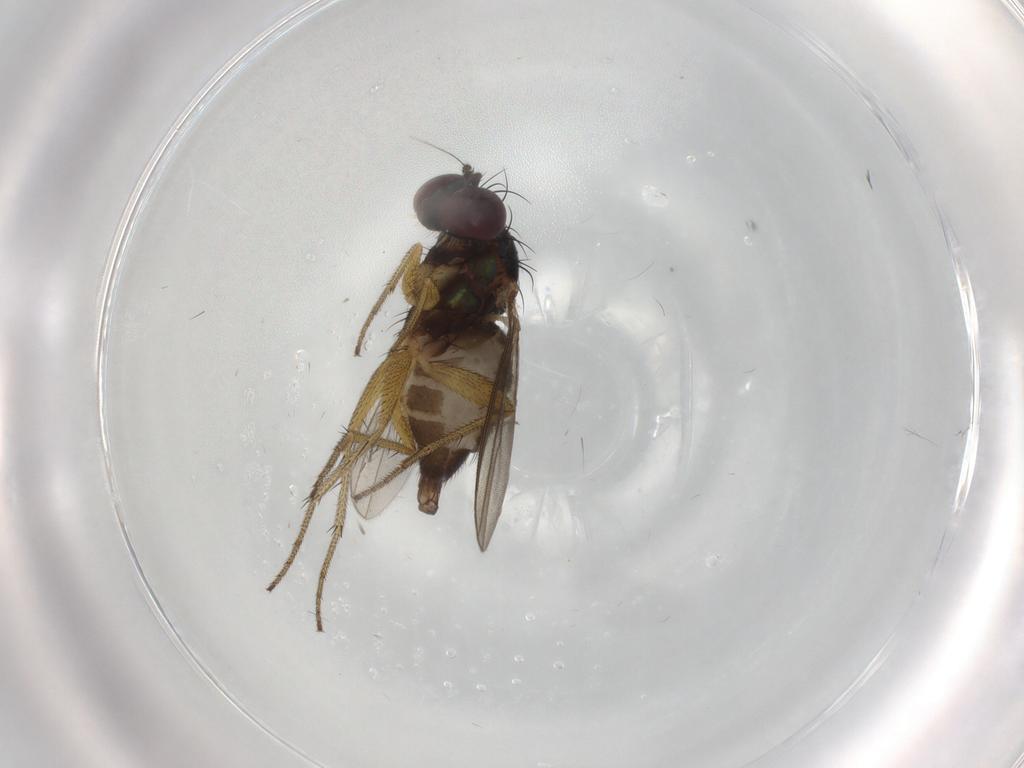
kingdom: Animalia
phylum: Arthropoda
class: Insecta
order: Diptera
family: Dolichopodidae
